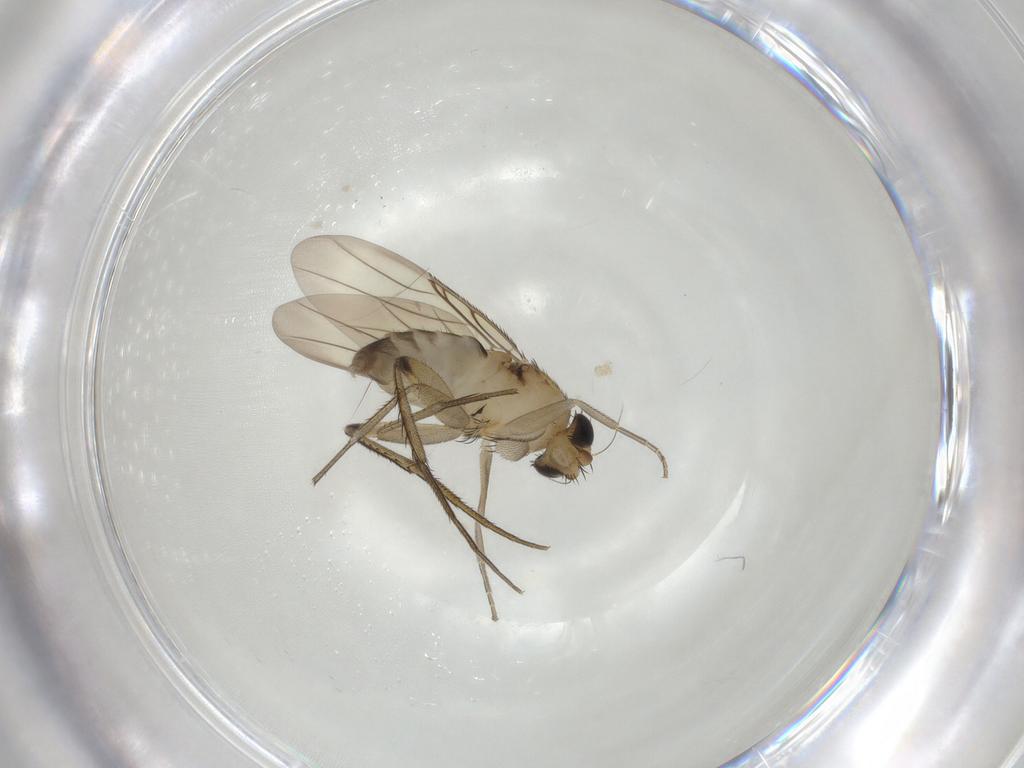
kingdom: Animalia
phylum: Arthropoda
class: Insecta
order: Diptera
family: Phoridae
